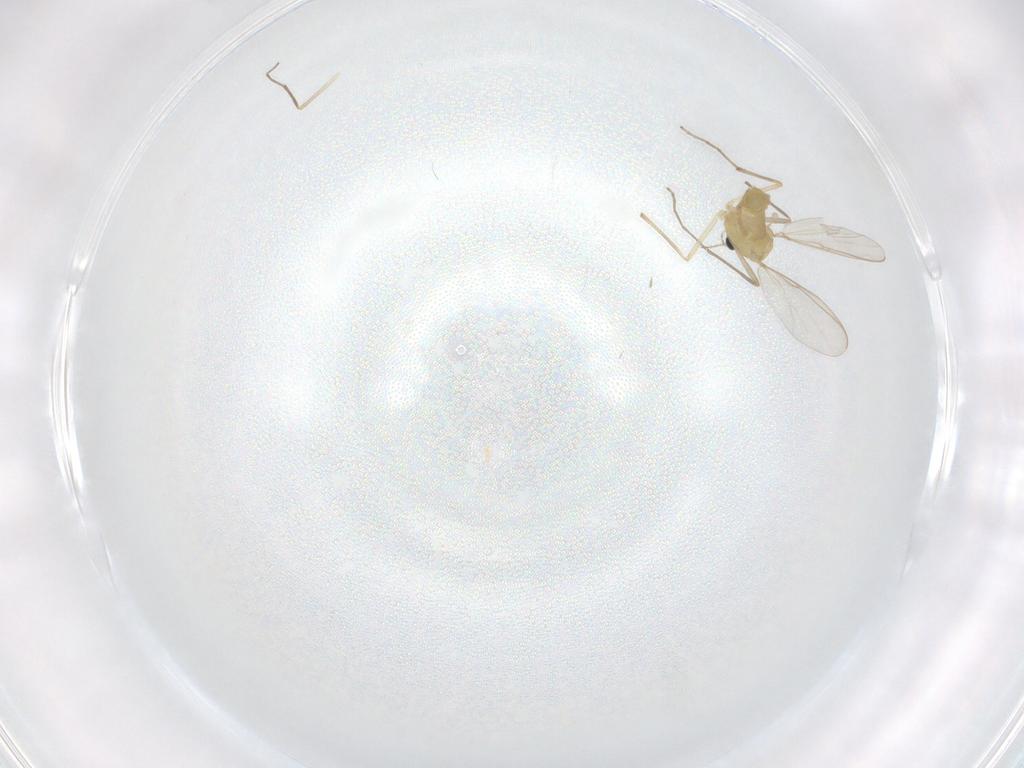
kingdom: Animalia
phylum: Arthropoda
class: Insecta
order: Diptera
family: Chironomidae
